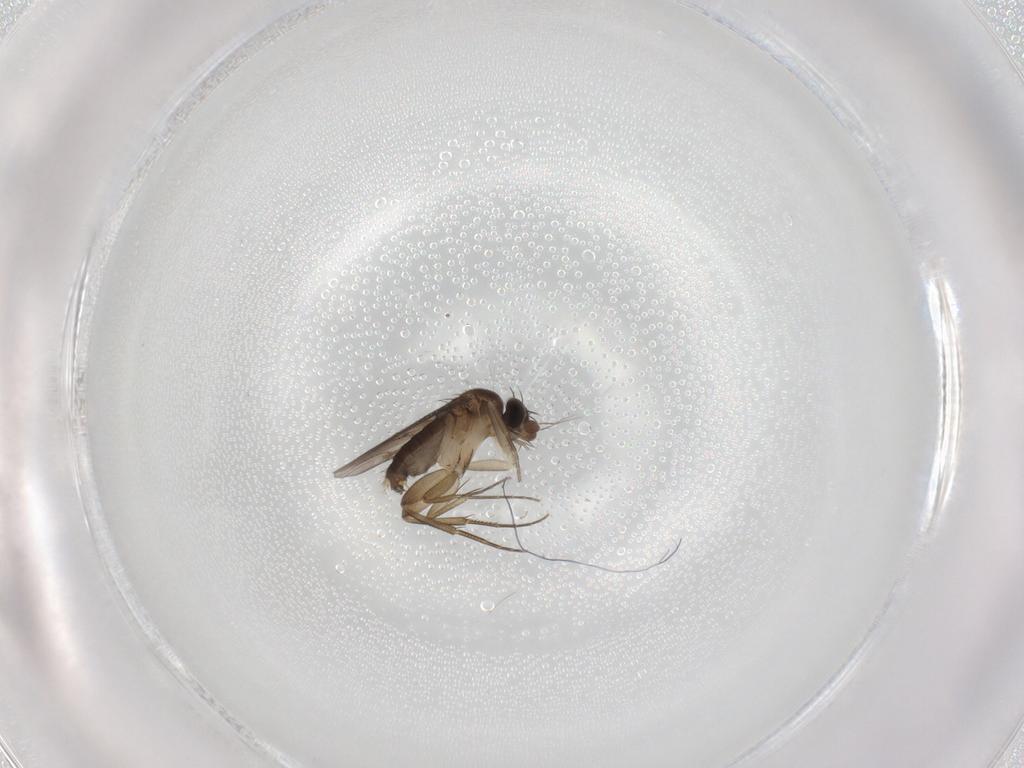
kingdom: Animalia
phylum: Arthropoda
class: Insecta
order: Diptera
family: Phoridae
